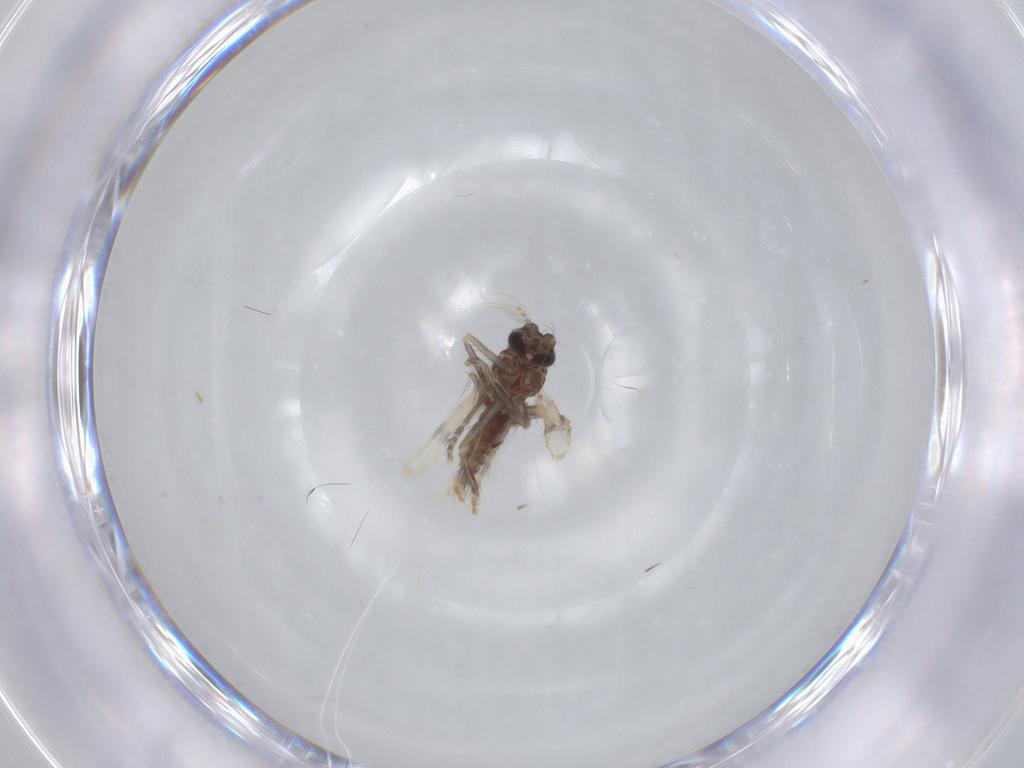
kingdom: Animalia
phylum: Arthropoda
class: Insecta
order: Diptera
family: Corethrellidae
